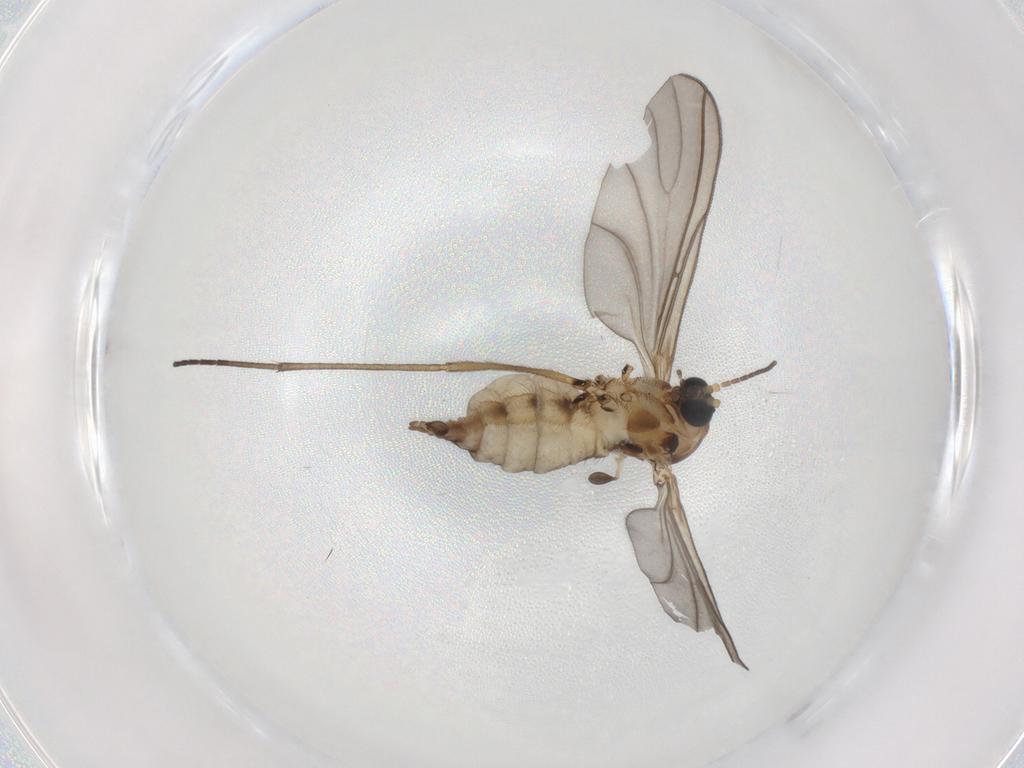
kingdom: Animalia
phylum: Arthropoda
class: Insecta
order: Diptera
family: Sciaridae
